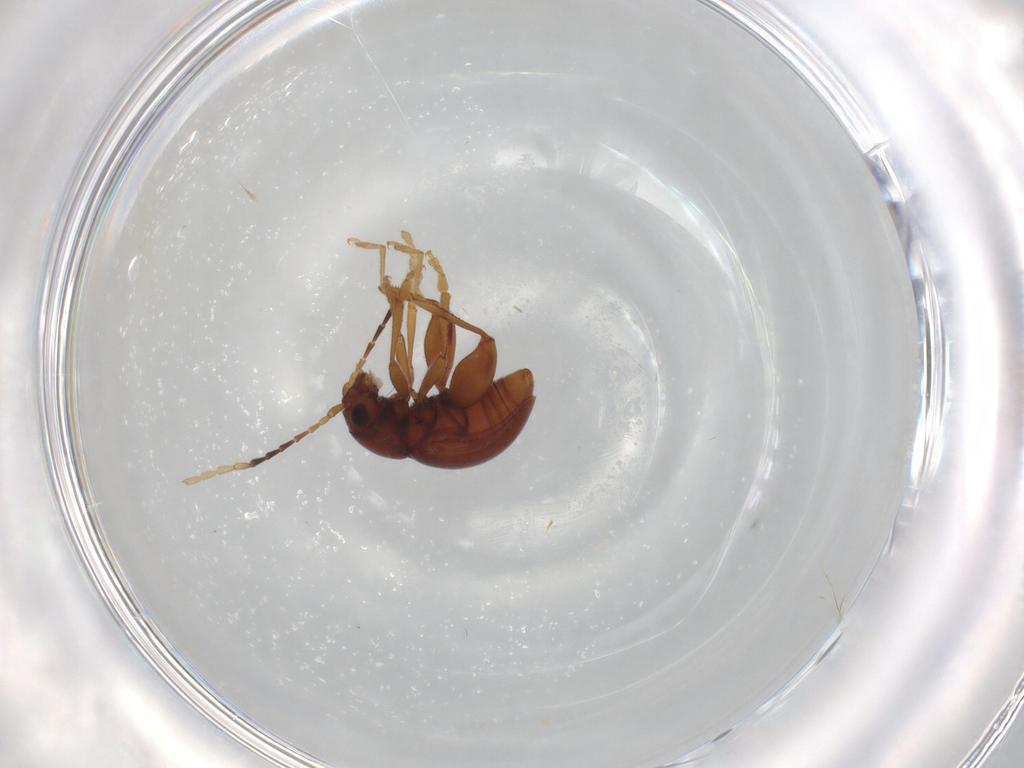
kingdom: Animalia
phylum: Arthropoda
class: Insecta
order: Coleoptera
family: Chrysomelidae
